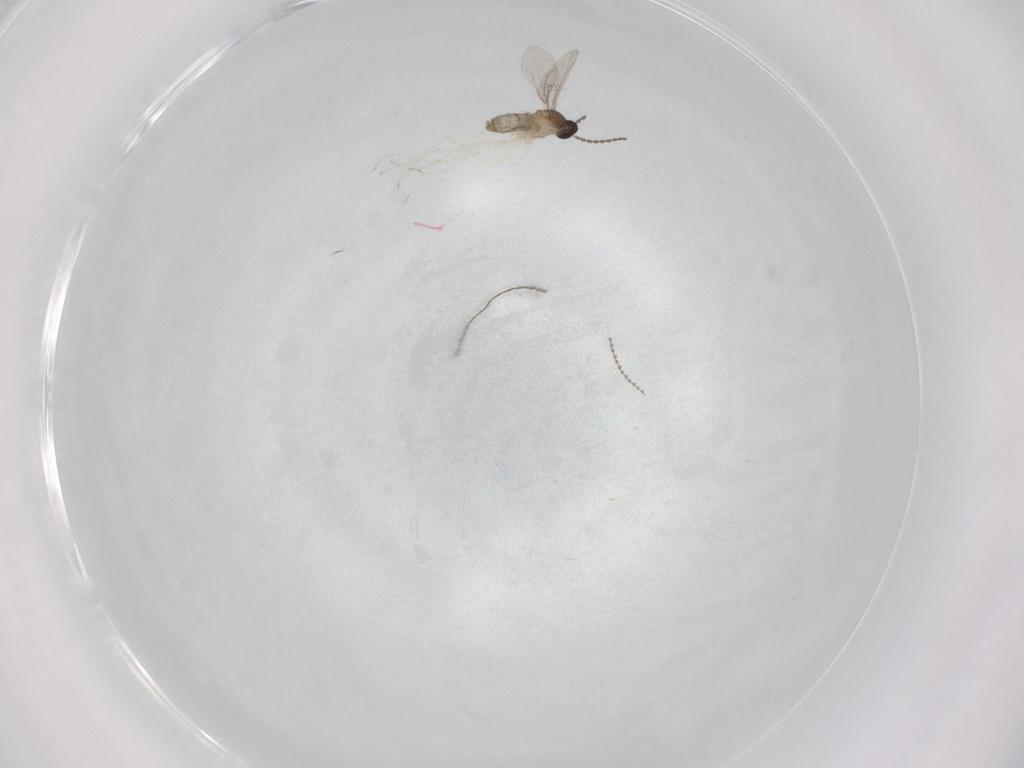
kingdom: Animalia
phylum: Arthropoda
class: Insecta
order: Diptera
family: Cecidomyiidae
